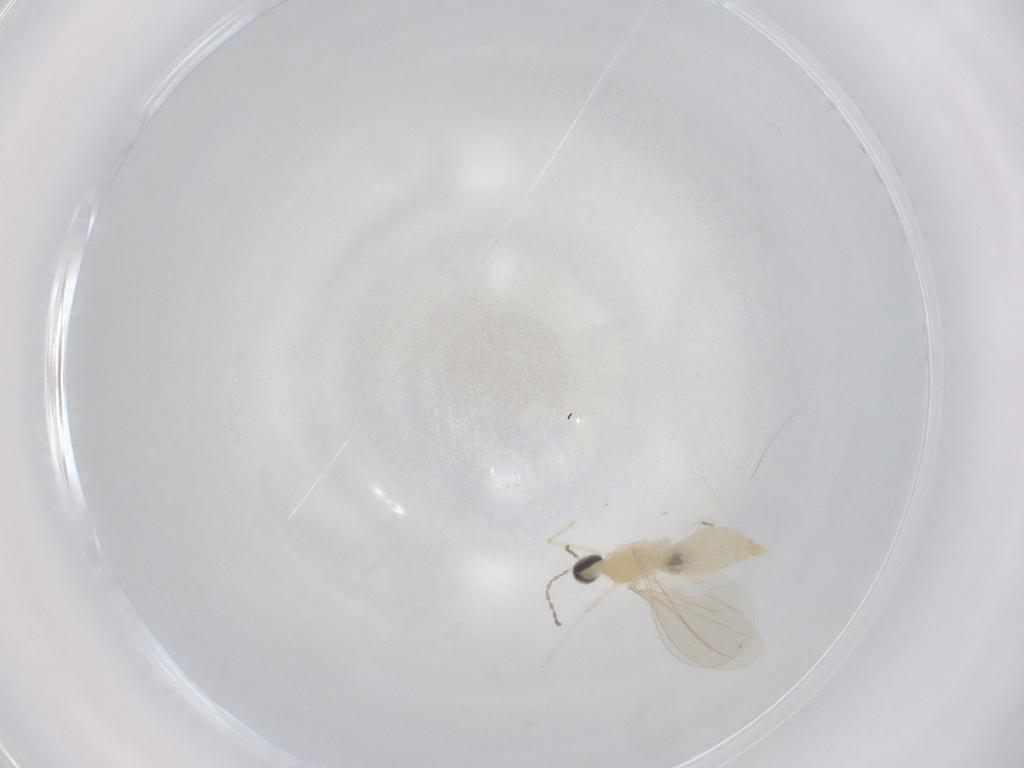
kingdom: Animalia
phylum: Arthropoda
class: Insecta
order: Diptera
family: Cecidomyiidae
